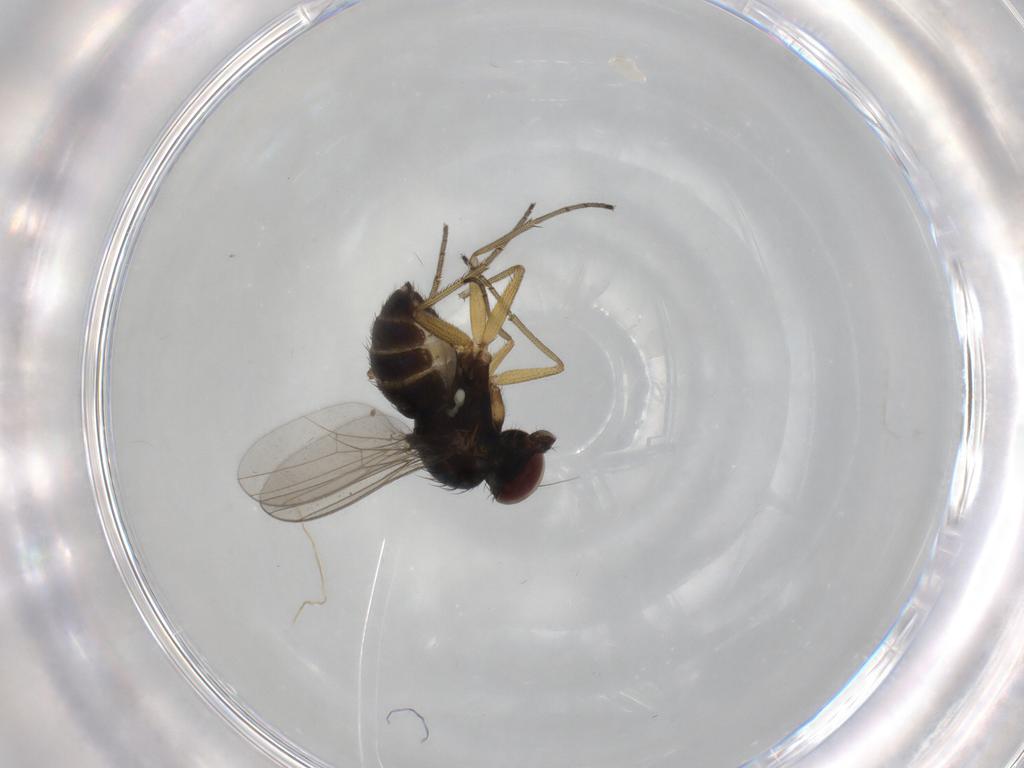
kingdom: Animalia
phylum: Arthropoda
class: Insecta
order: Diptera
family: Dolichopodidae
